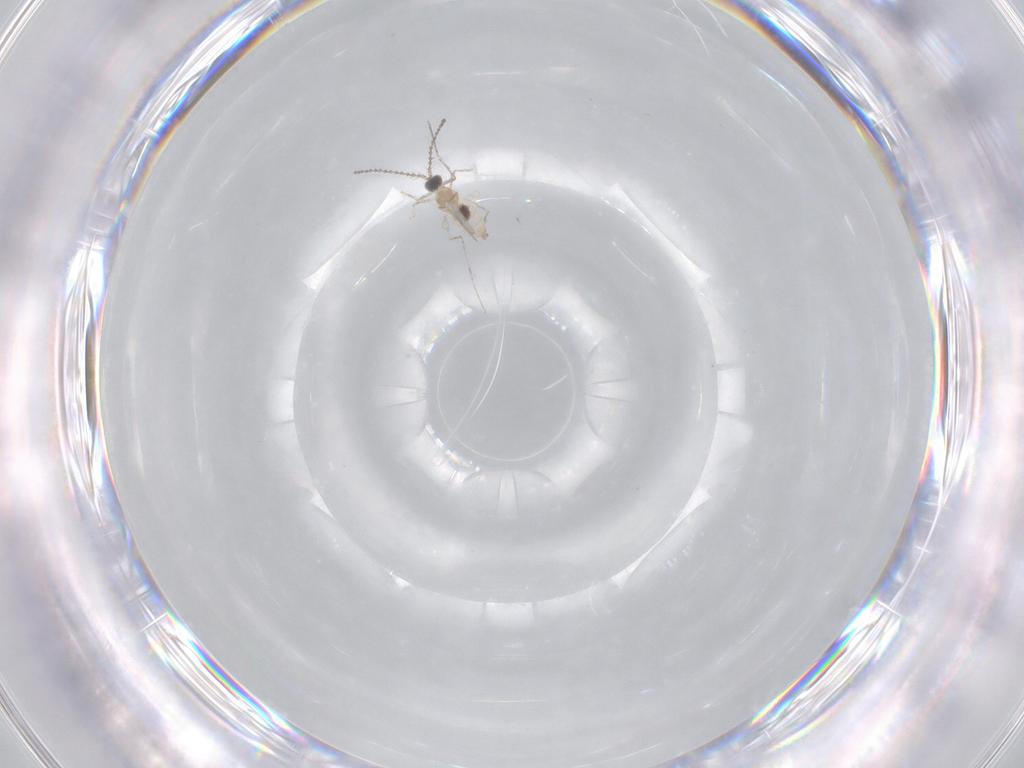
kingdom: Animalia
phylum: Arthropoda
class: Insecta
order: Diptera
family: Cecidomyiidae
